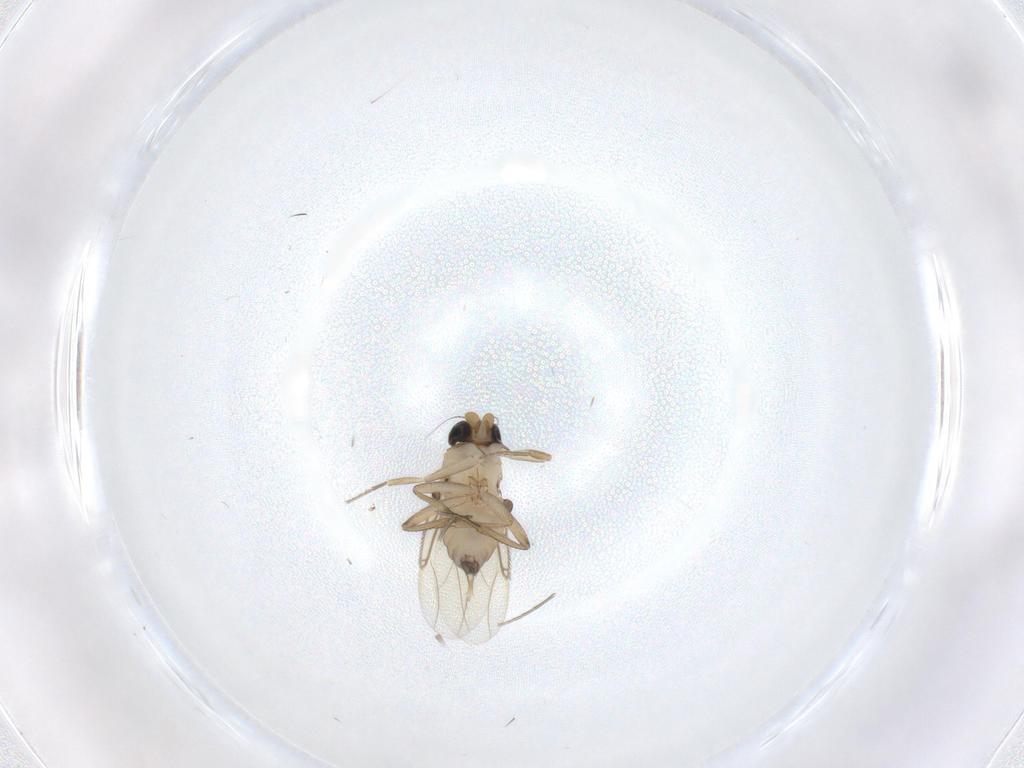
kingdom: Animalia
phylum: Arthropoda
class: Insecta
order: Diptera
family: Phoridae
